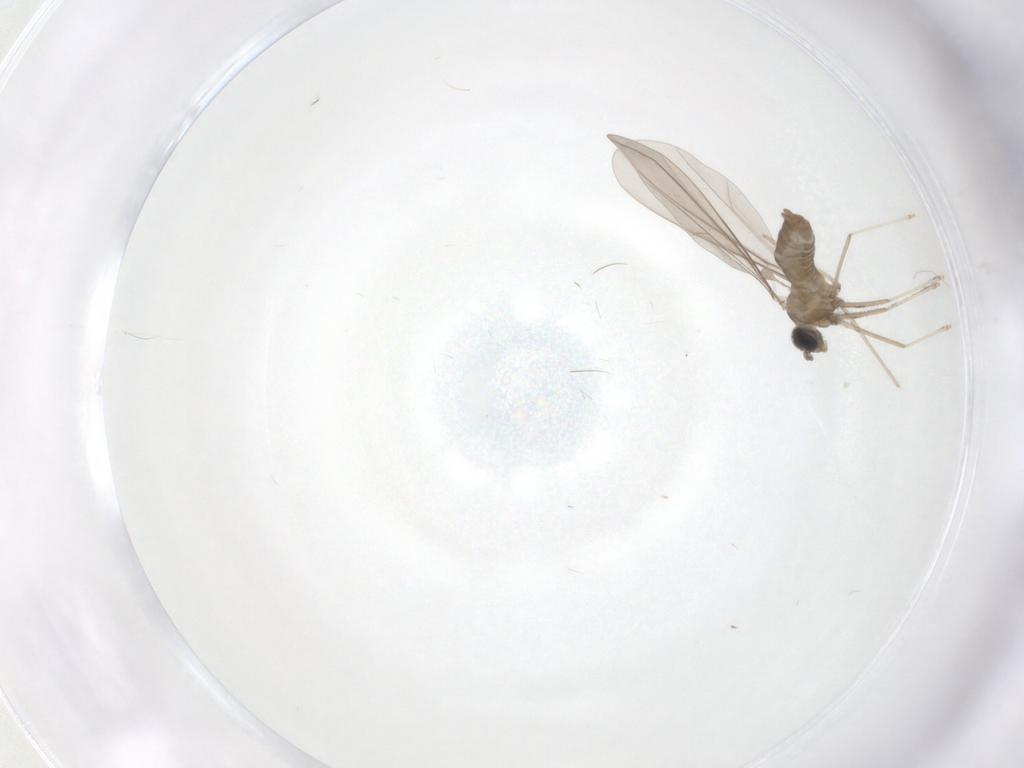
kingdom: Animalia
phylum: Arthropoda
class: Insecta
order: Diptera
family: Cecidomyiidae
